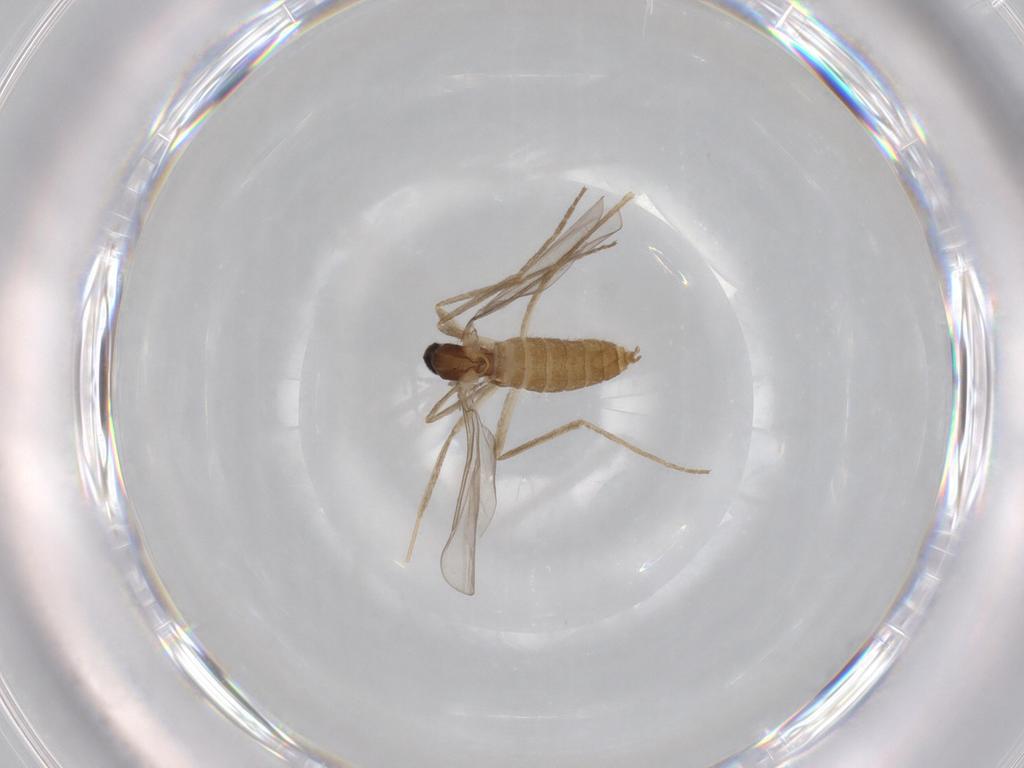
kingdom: Animalia
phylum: Arthropoda
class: Insecta
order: Diptera
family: Cecidomyiidae
